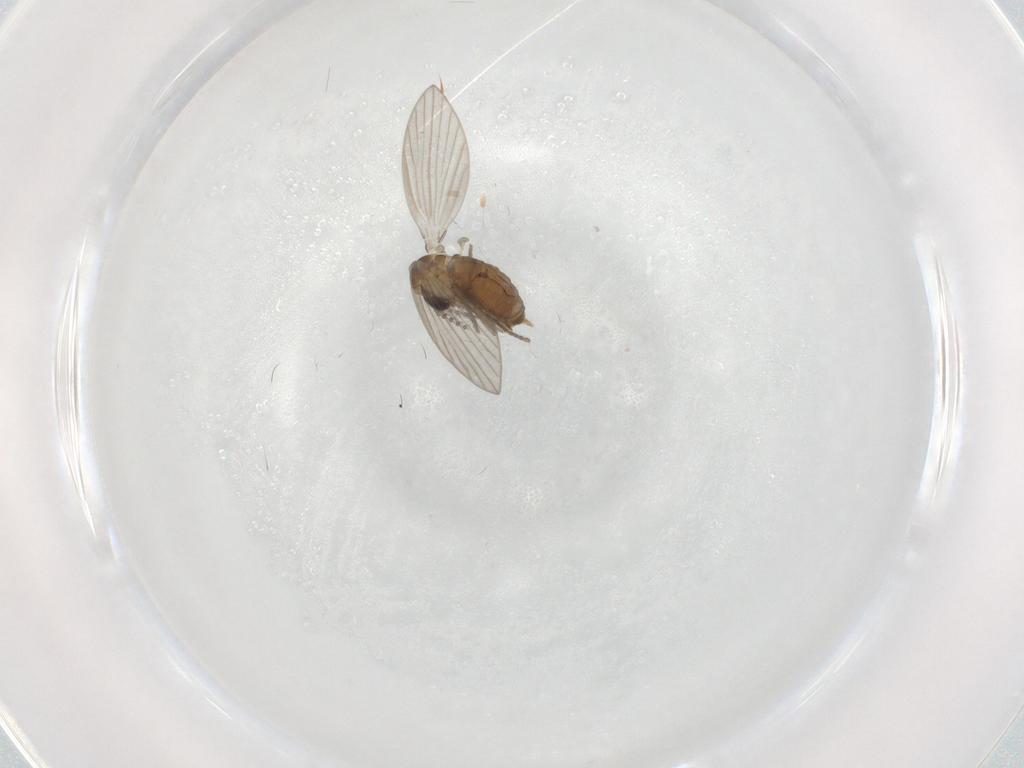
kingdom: Animalia
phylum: Arthropoda
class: Insecta
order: Diptera
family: Psychodidae
